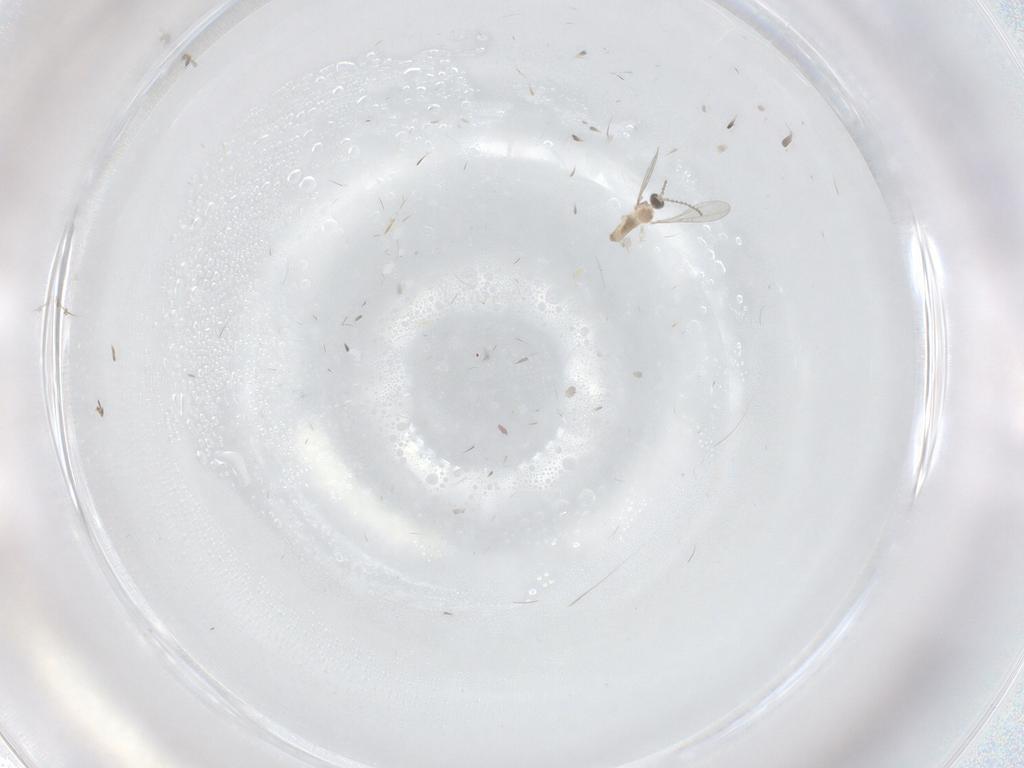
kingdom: Animalia
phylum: Arthropoda
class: Insecta
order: Diptera
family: Cecidomyiidae
